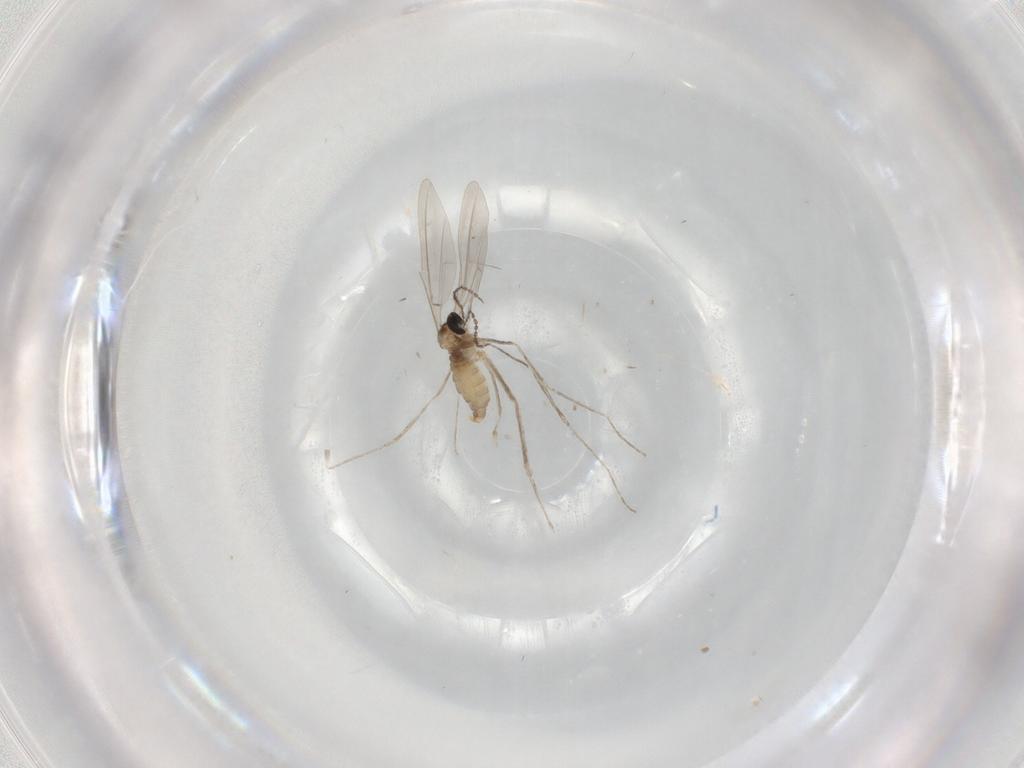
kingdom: Animalia
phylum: Arthropoda
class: Insecta
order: Diptera
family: Cecidomyiidae
